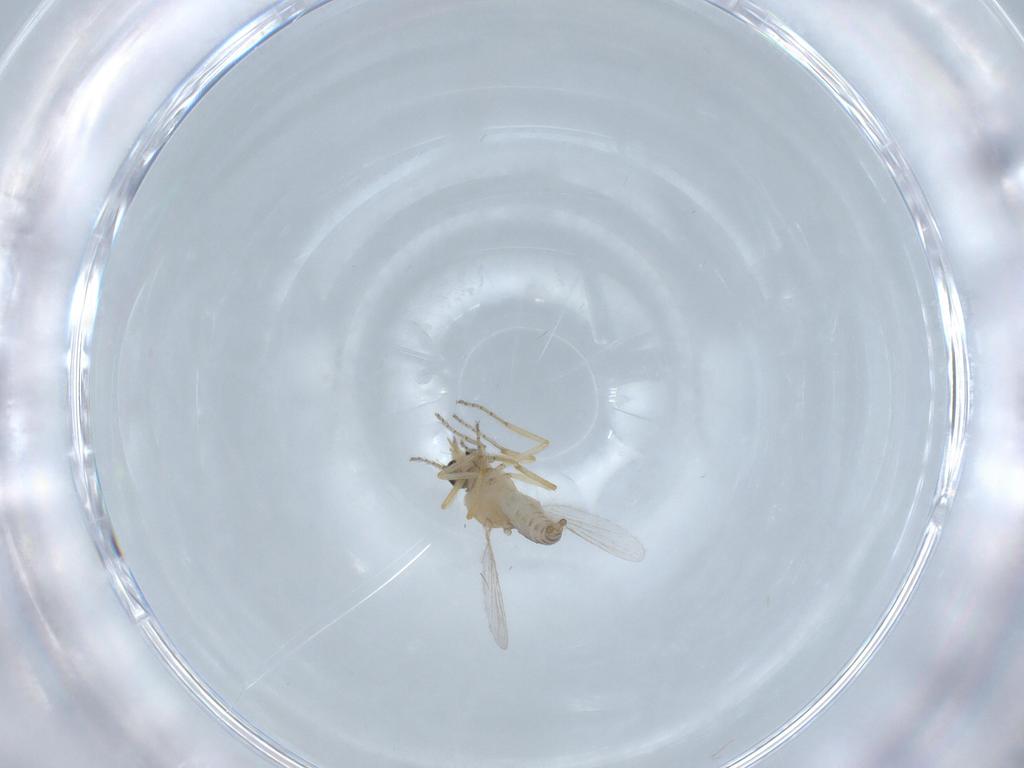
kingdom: Animalia
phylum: Arthropoda
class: Insecta
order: Diptera
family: Ceratopogonidae
